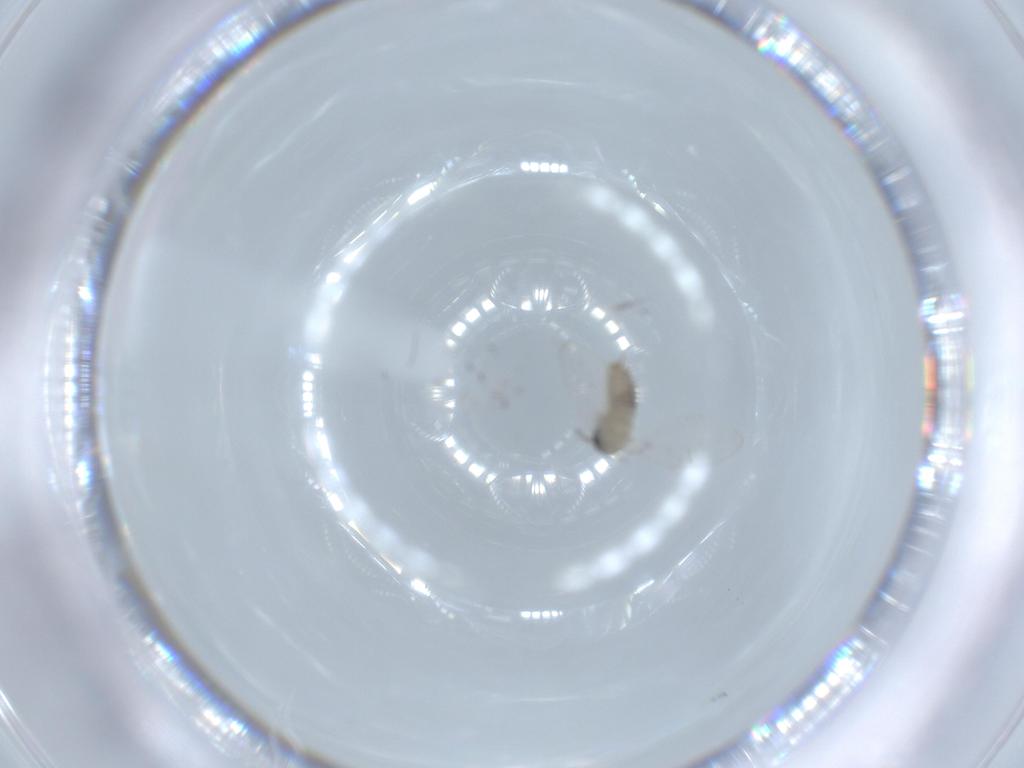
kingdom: Animalia
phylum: Arthropoda
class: Insecta
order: Diptera
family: Psychodidae
